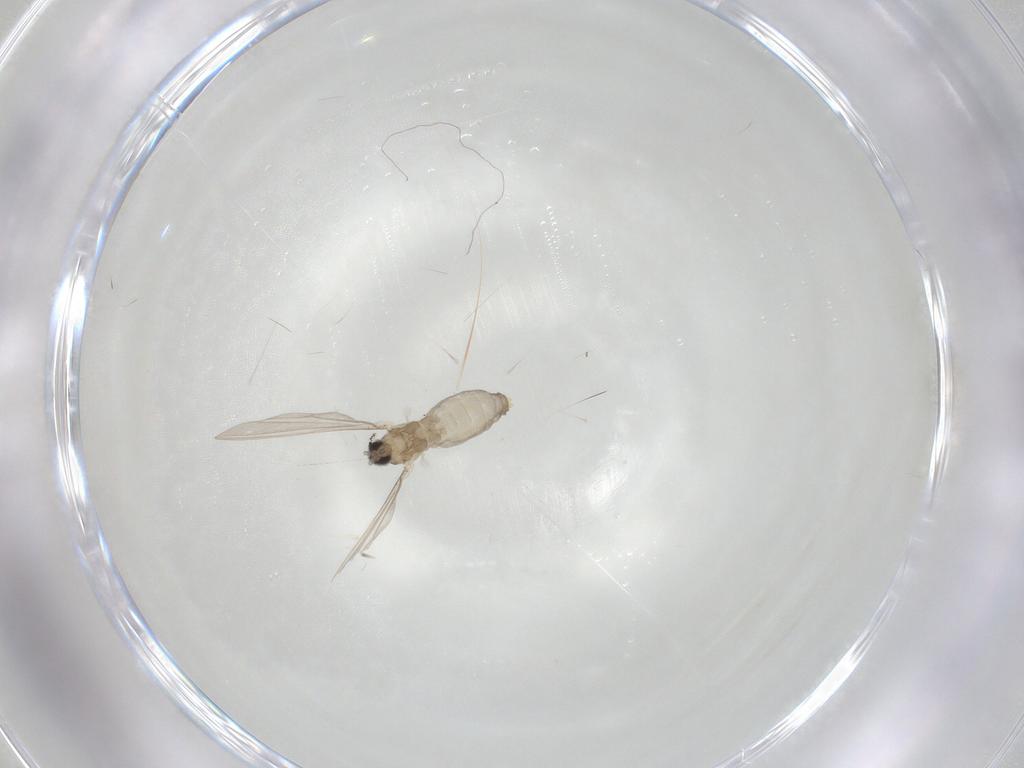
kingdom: Animalia
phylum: Arthropoda
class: Insecta
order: Diptera
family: Cecidomyiidae
